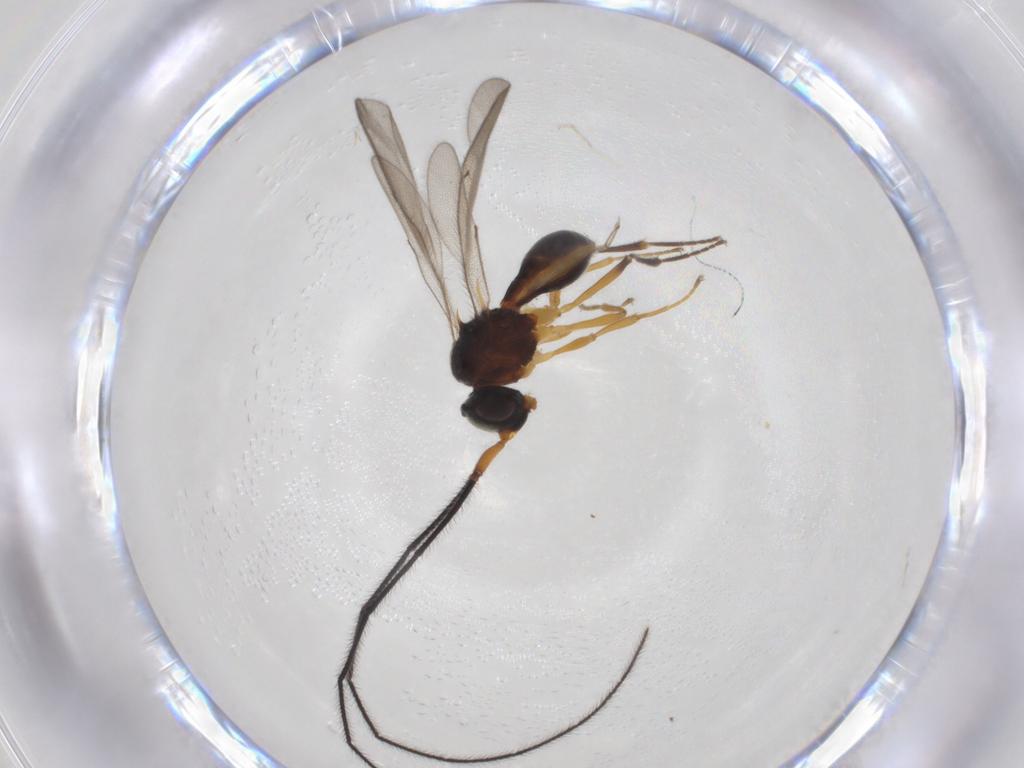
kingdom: Animalia
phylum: Arthropoda
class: Insecta
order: Hymenoptera
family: Scelionidae
